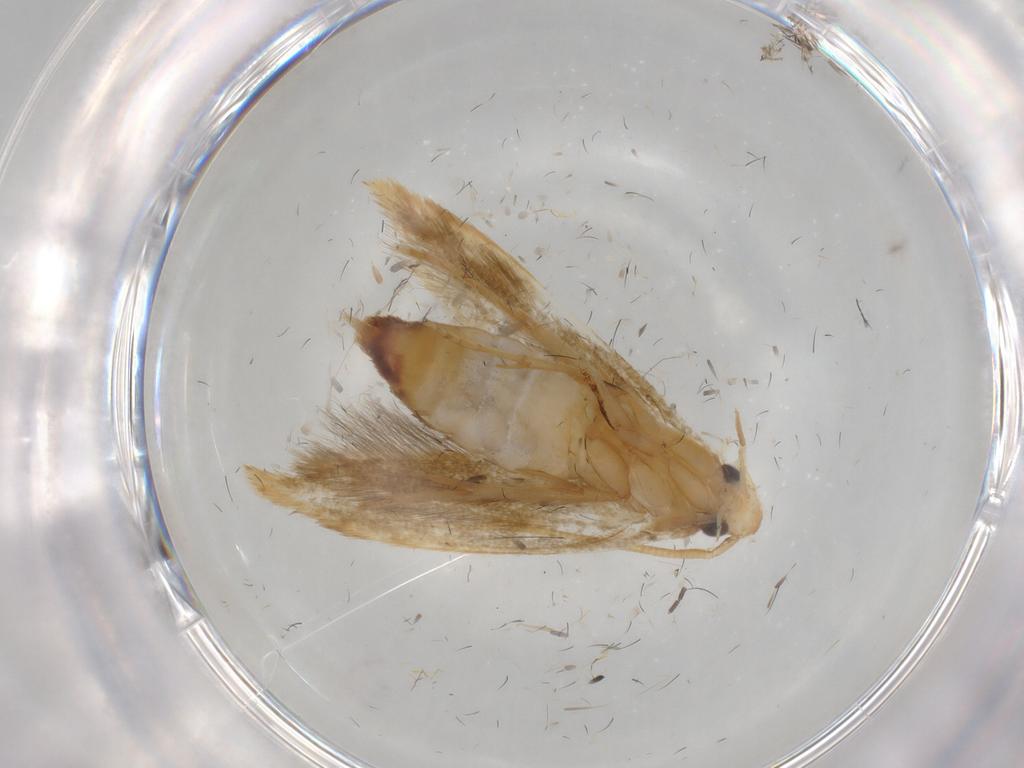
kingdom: Animalia
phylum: Arthropoda
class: Insecta
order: Lepidoptera
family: Tineidae
